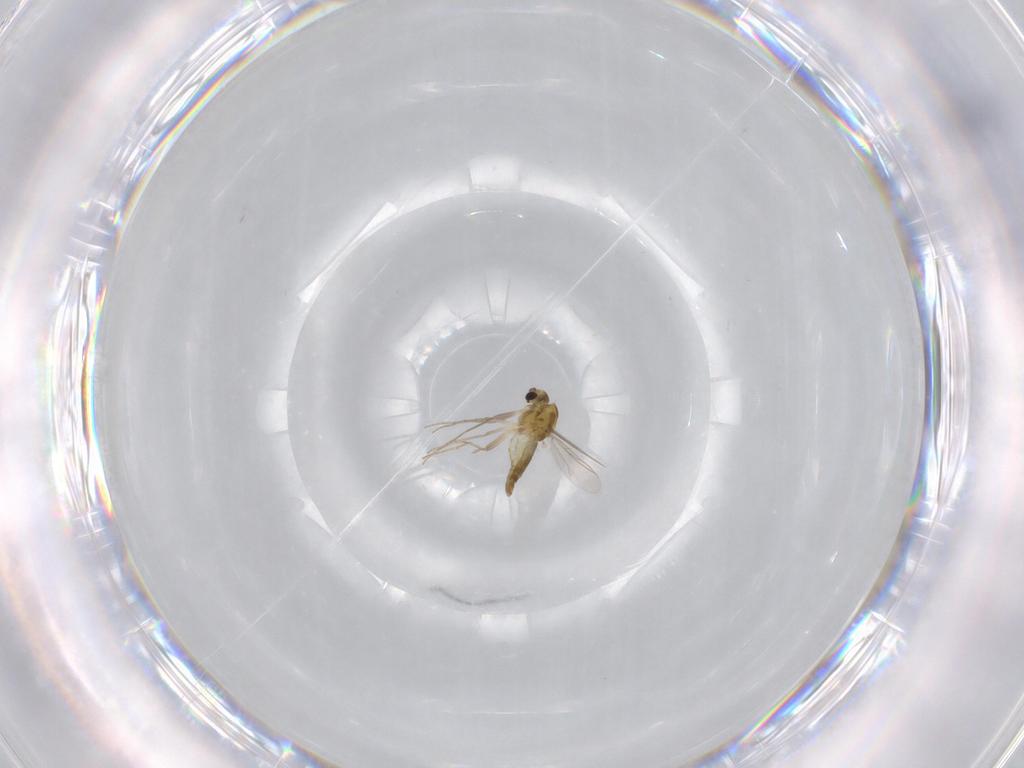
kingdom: Animalia
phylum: Arthropoda
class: Insecta
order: Diptera
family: Chironomidae
